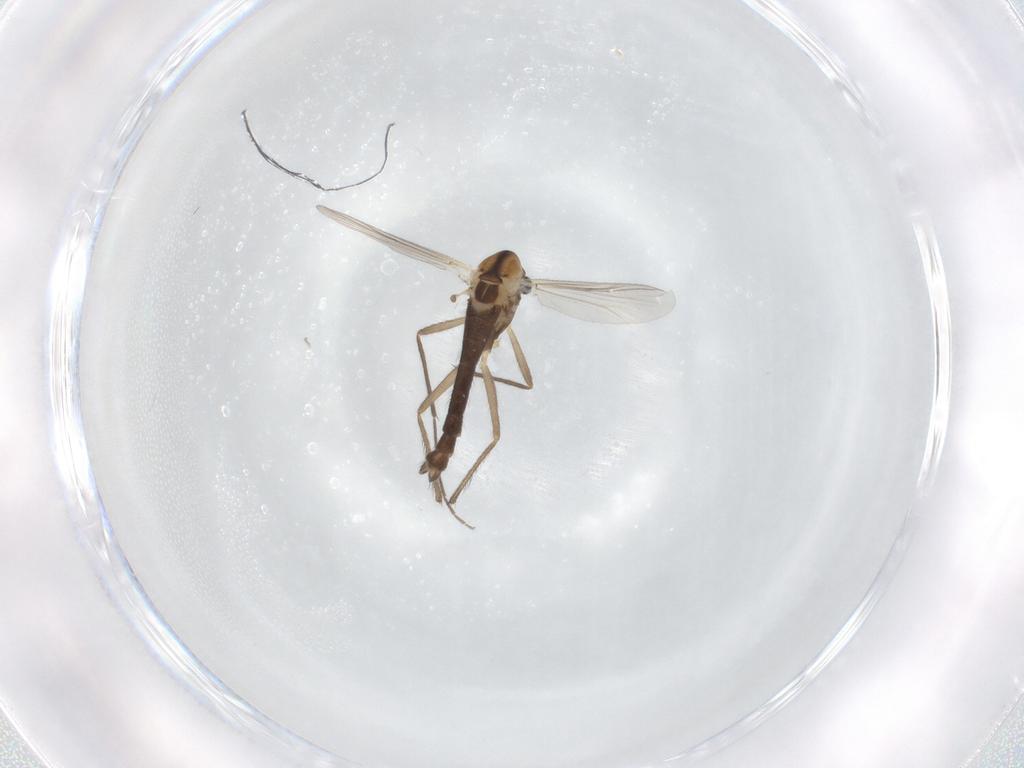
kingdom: Animalia
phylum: Arthropoda
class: Insecta
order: Diptera
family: Chironomidae
